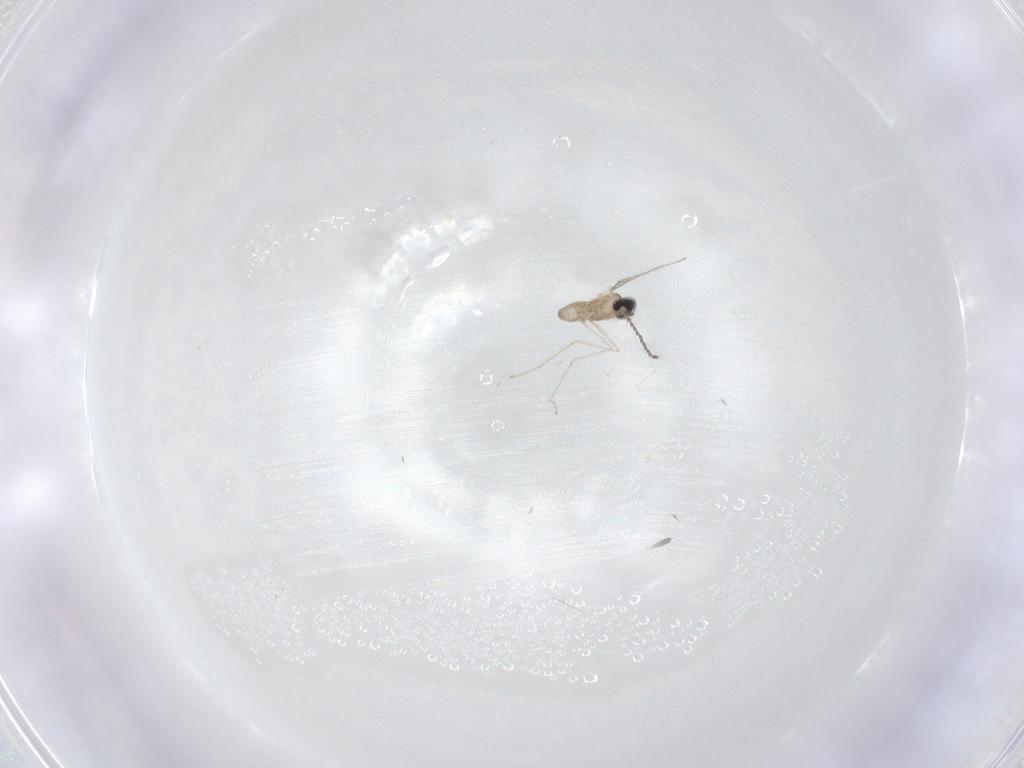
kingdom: Animalia
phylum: Arthropoda
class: Insecta
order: Diptera
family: Cecidomyiidae
